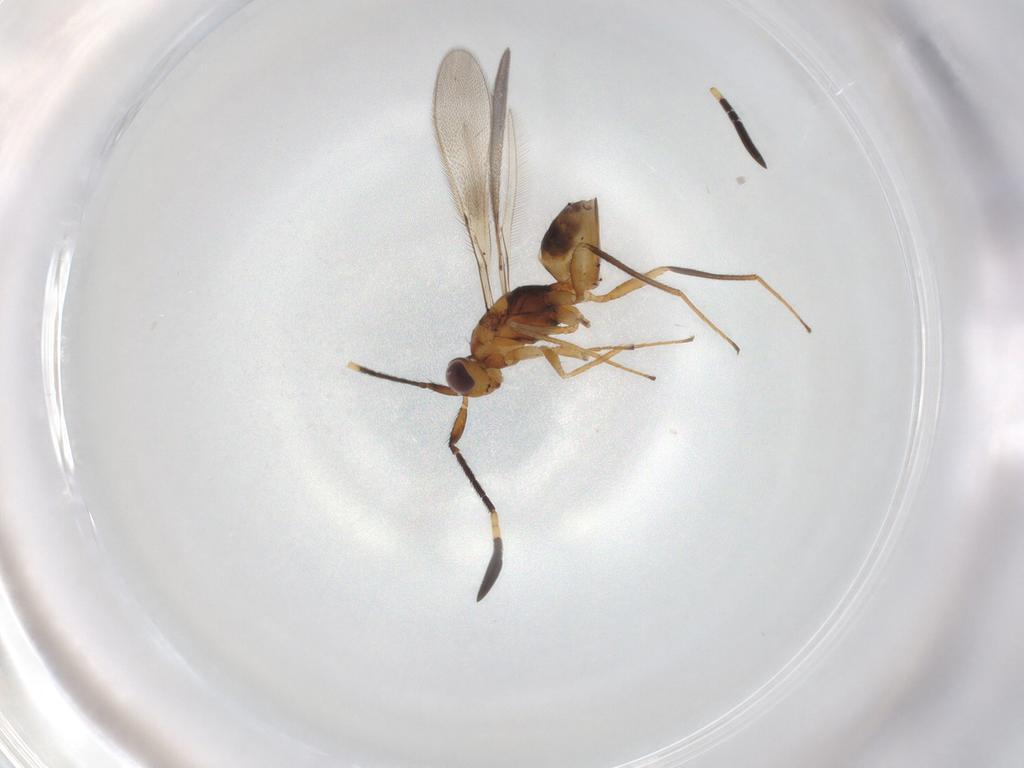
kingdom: Animalia
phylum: Arthropoda
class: Insecta
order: Hymenoptera
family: Mymaridae
